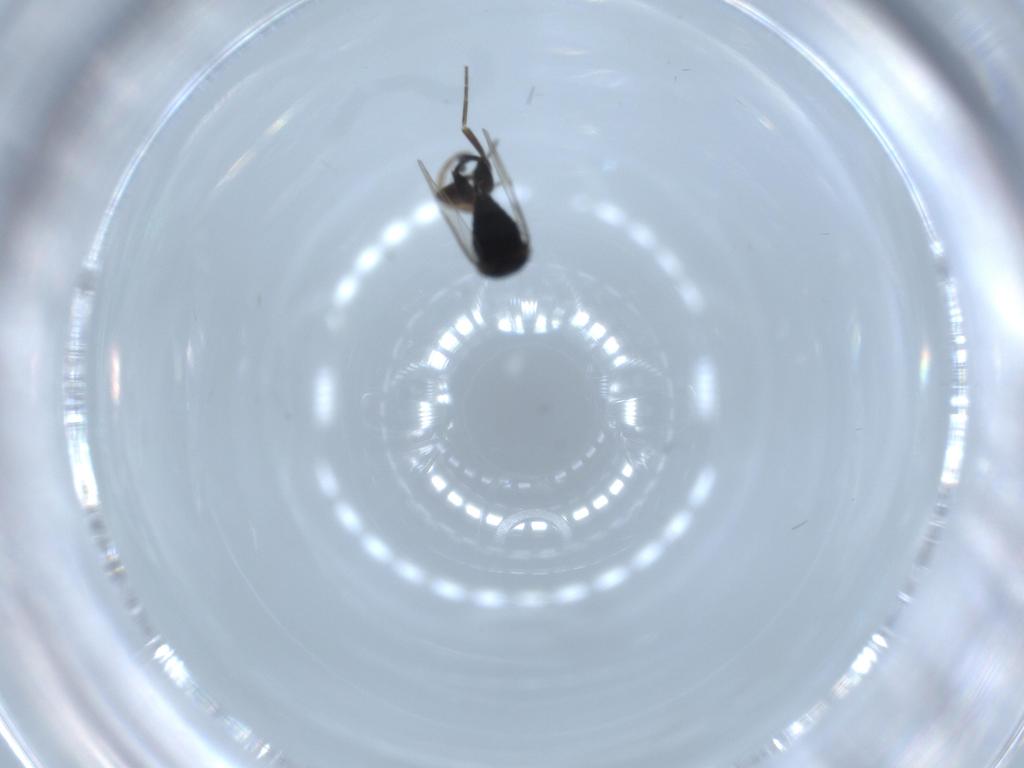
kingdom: Animalia
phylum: Arthropoda
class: Insecta
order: Diptera
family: Phoridae
